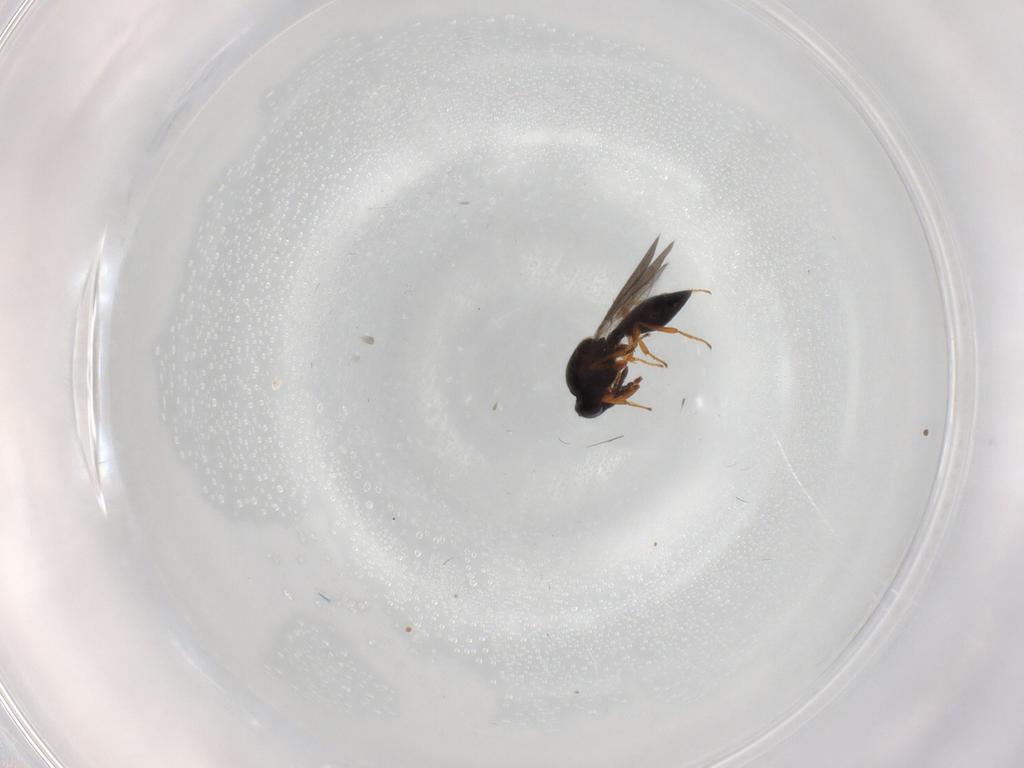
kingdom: Animalia
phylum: Arthropoda
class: Insecta
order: Hymenoptera
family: Platygastridae
